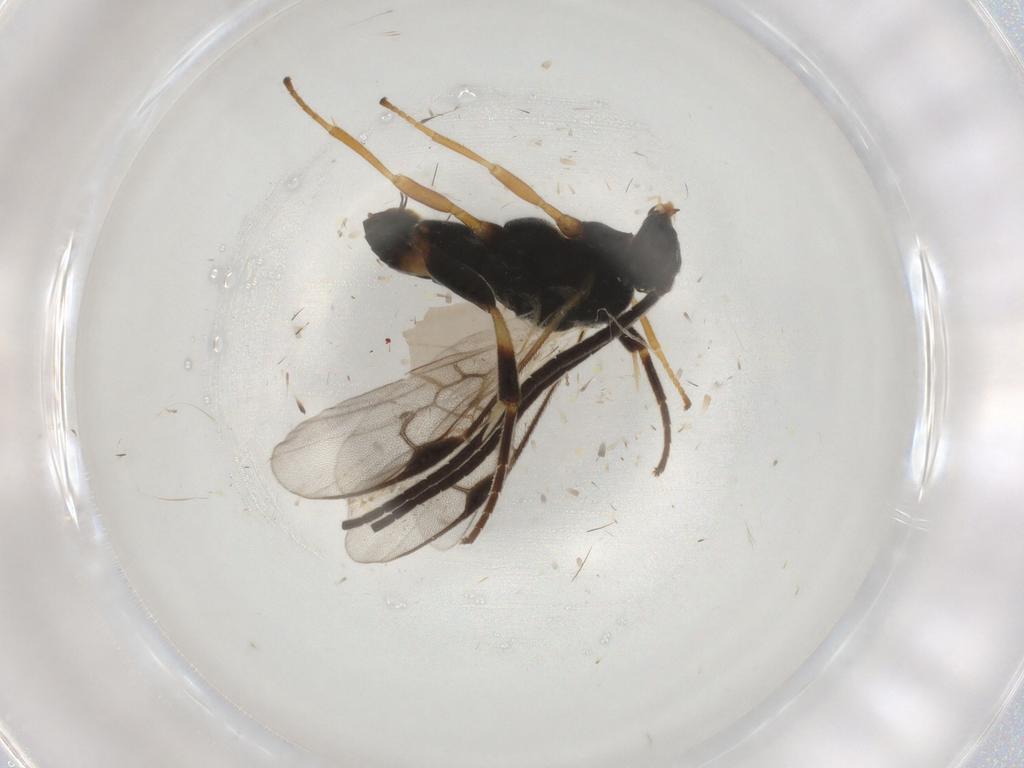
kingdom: Animalia
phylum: Arthropoda
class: Insecta
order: Hymenoptera
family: Braconidae
